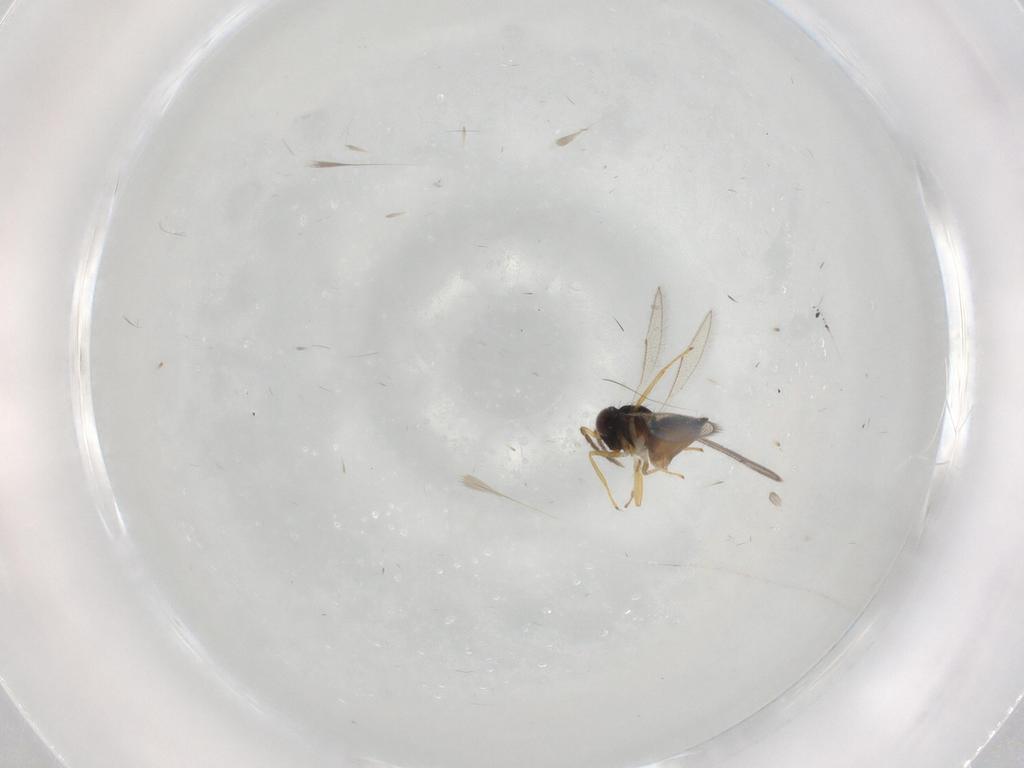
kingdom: Animalia
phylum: Arthropoda
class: Insecta
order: Hymenoptera
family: Eulophidae
